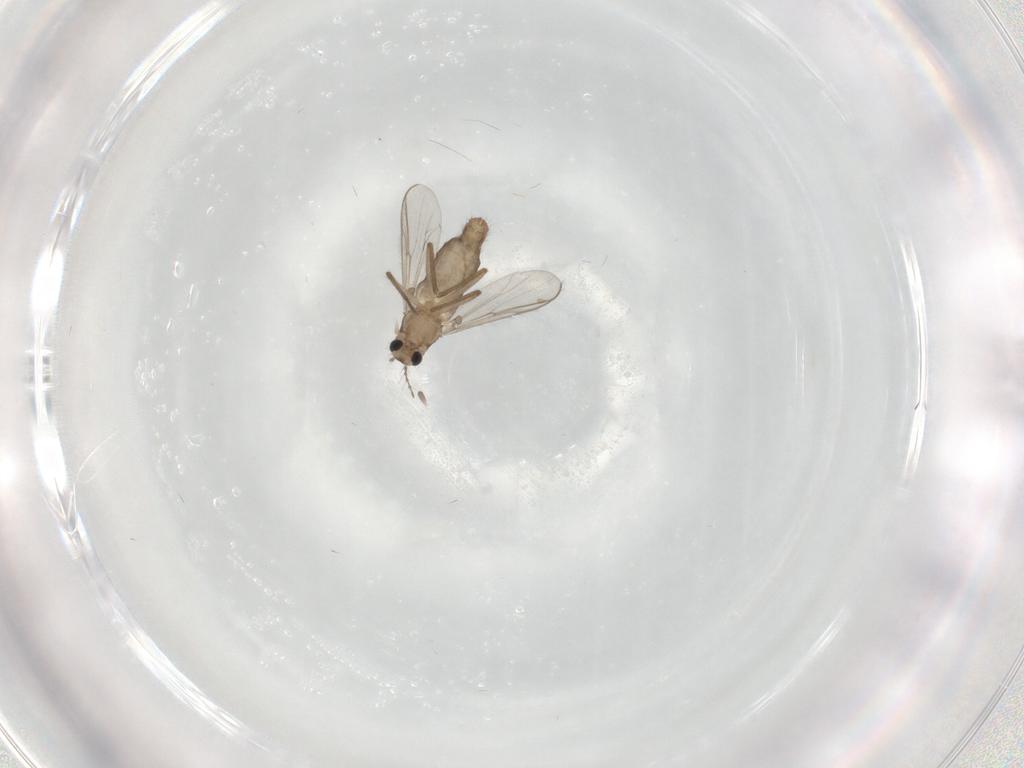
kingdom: Animalia
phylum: Arthropoda
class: Insecta
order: Diptera
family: Chironomidae
